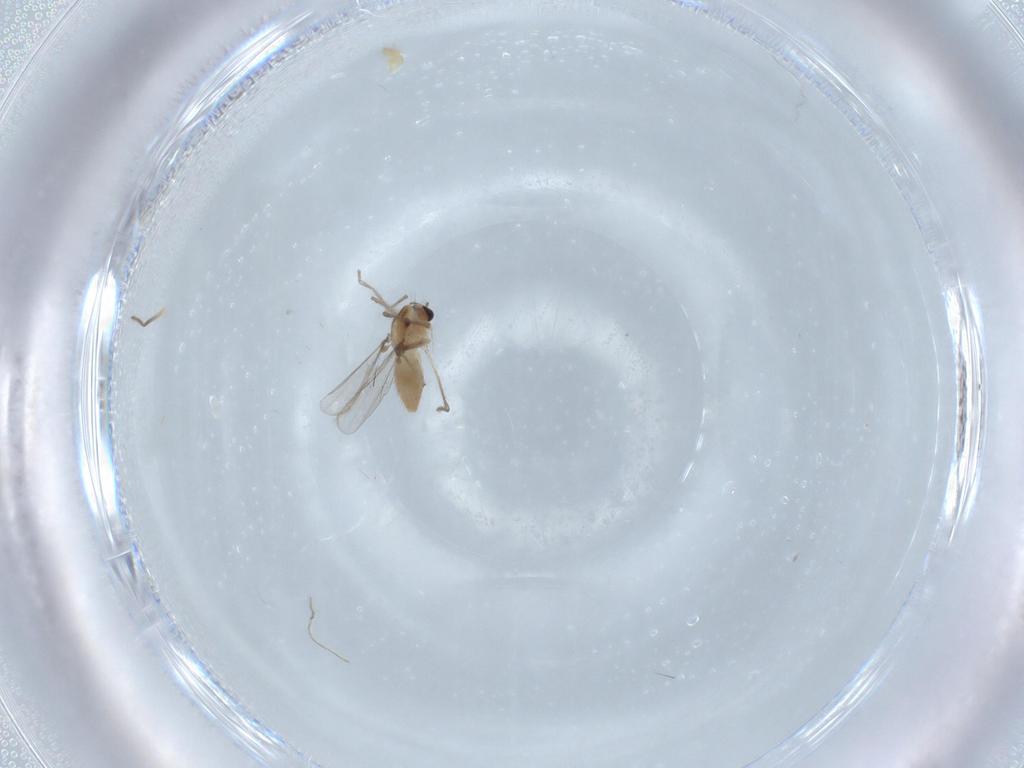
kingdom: Animalia
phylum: Arthropoda
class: Insecta
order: Diptera
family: Chironomidae
